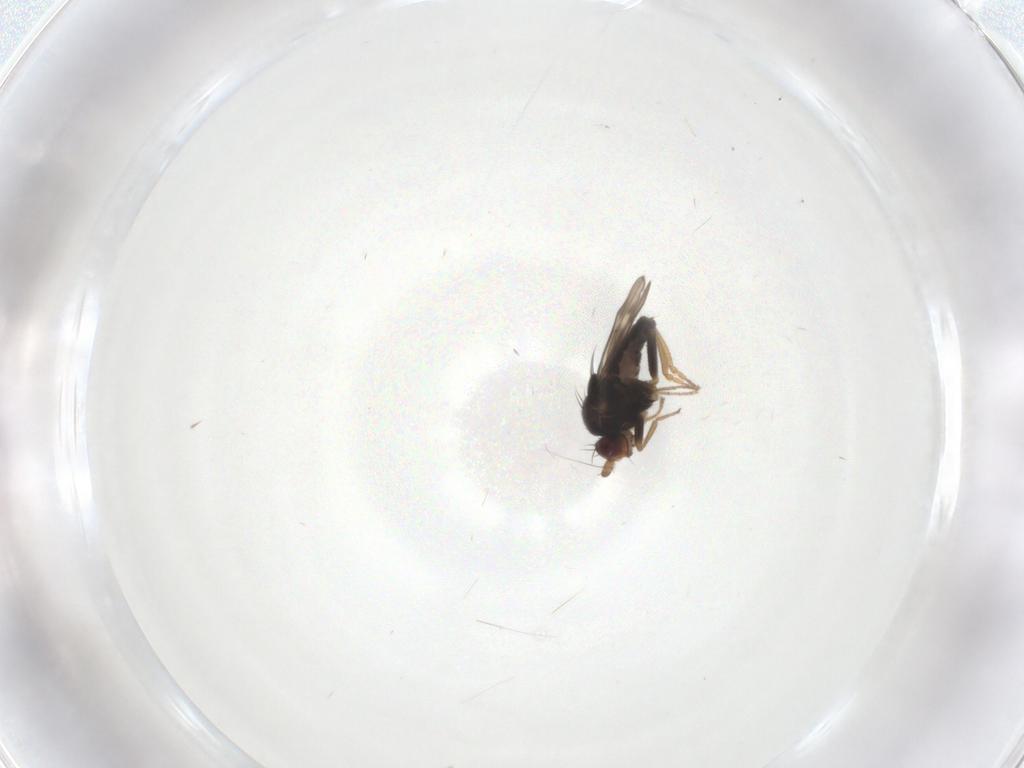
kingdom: Animalia
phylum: Arthropoda
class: Insecta
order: Diptera
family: Sphaeroceridae
